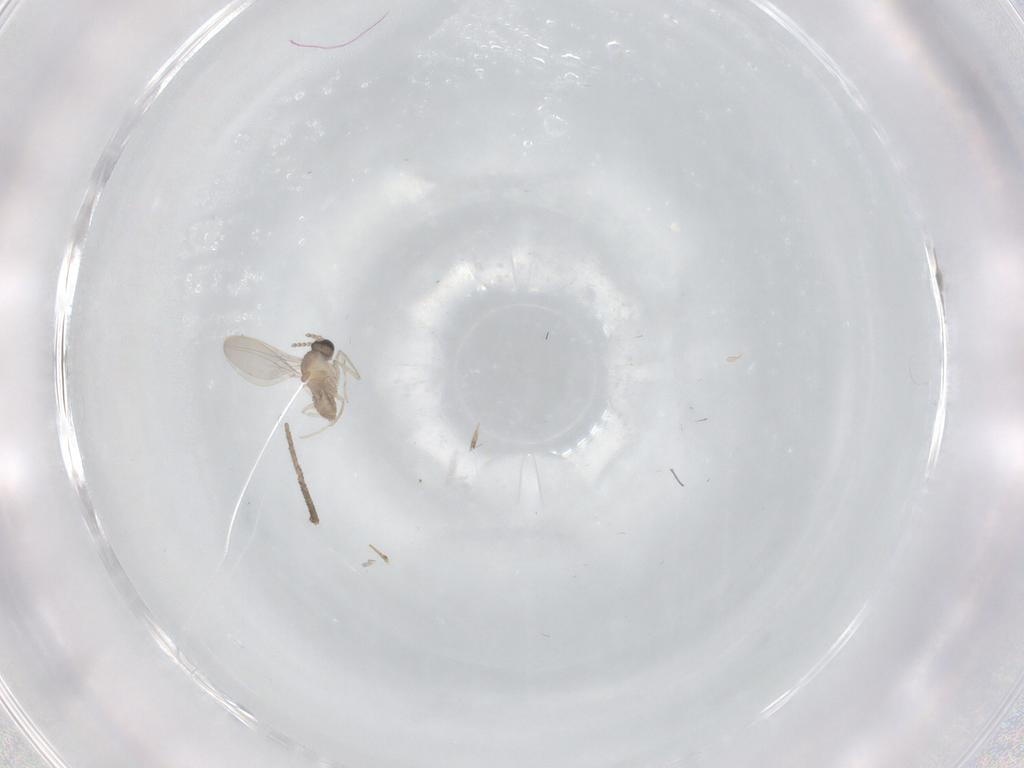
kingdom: Animalia
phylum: Arthropoda
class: Insecta
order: Diptera
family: Cecidomyiidae
